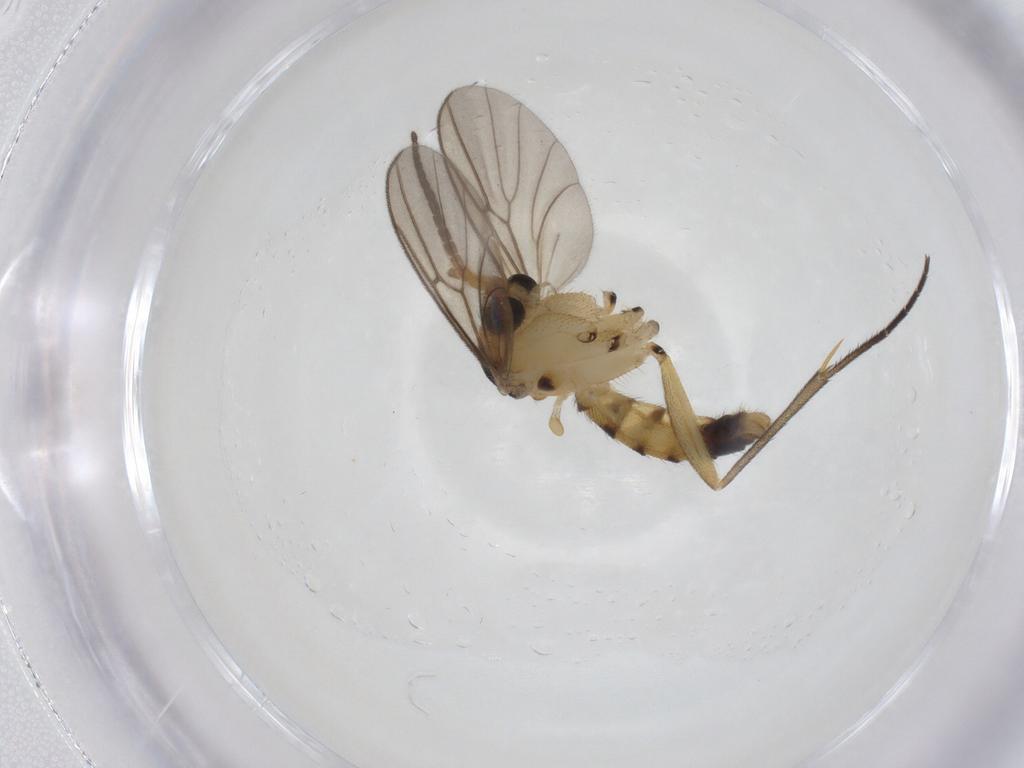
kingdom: Animalia
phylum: Arthropoda
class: Insecta
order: Diptera
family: Mycetophilidae
